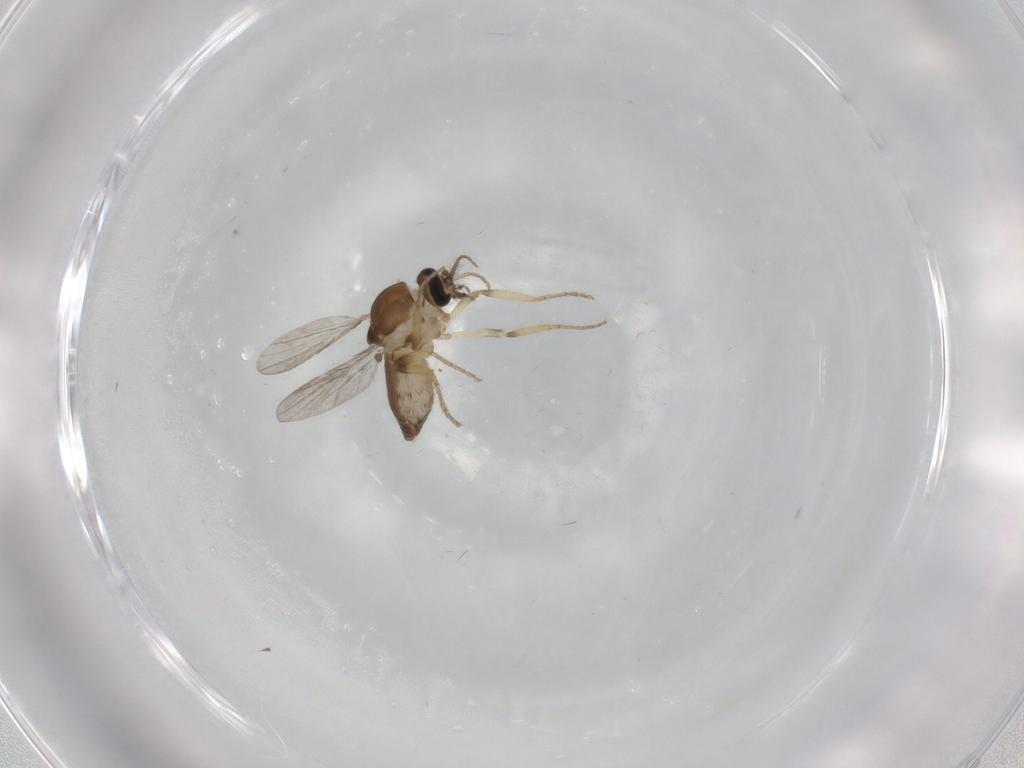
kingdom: Animalia
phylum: Arthropoda
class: Insecta
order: Diptera
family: Ceratopogonidae
